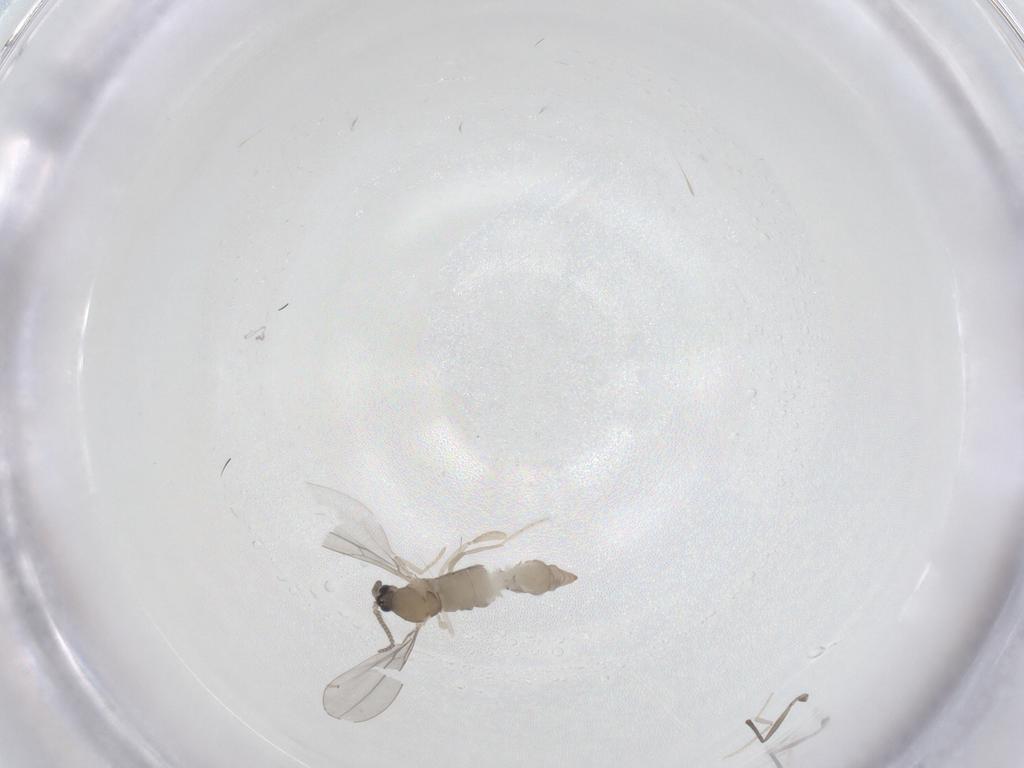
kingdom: Animalia
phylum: Arthropoda
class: Insecta
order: Diptera
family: Cecidomyiidae
